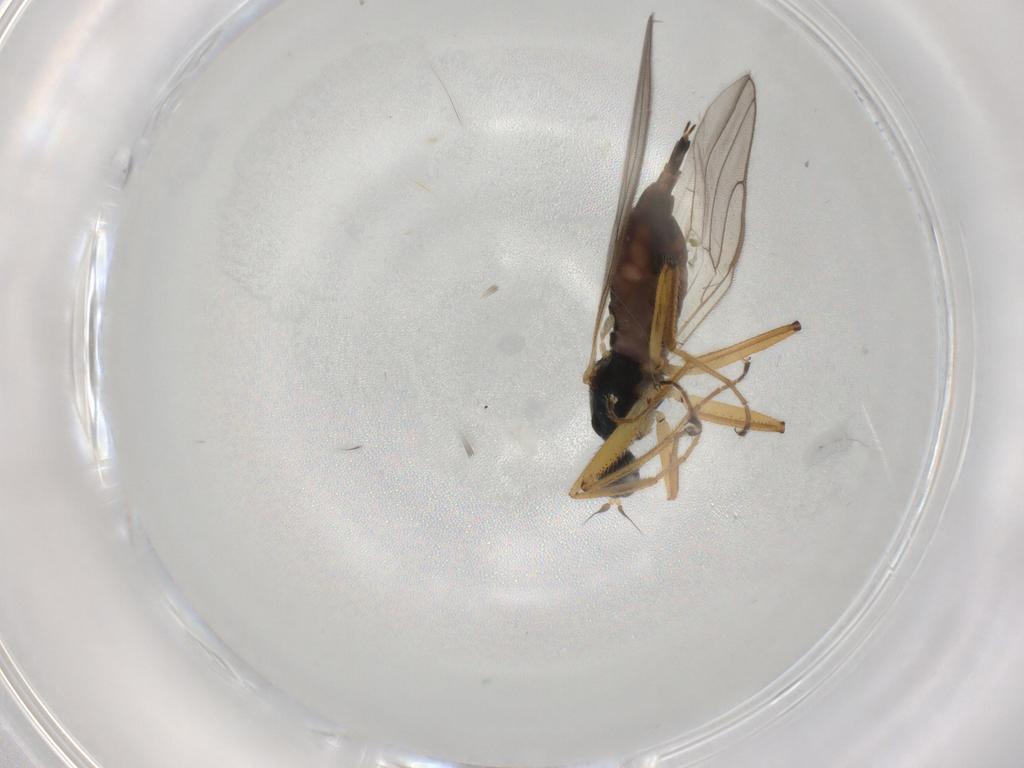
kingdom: Animalia
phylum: Arthropoda
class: Insecta
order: Diptera
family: Hybotidae
